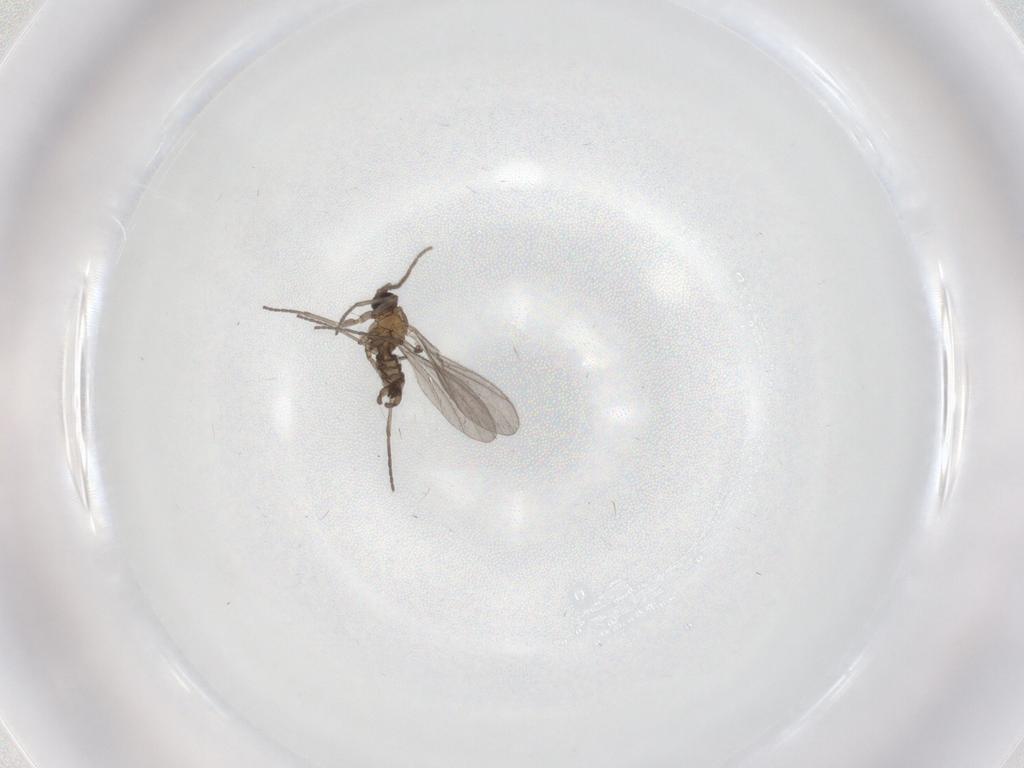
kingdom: Animalia
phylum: Arthropoda
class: Insecta
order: Diptera
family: Sciaridae
